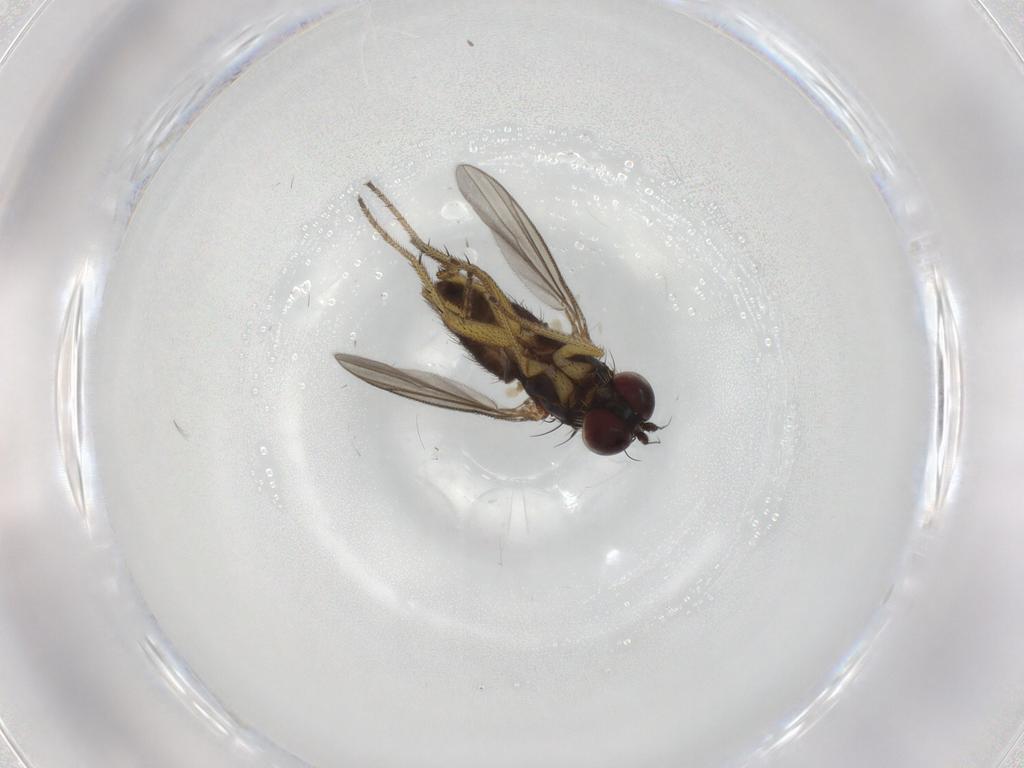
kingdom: Animalia
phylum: Arthropoda
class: Insecta
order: Diptera
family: Dolichopodidae
